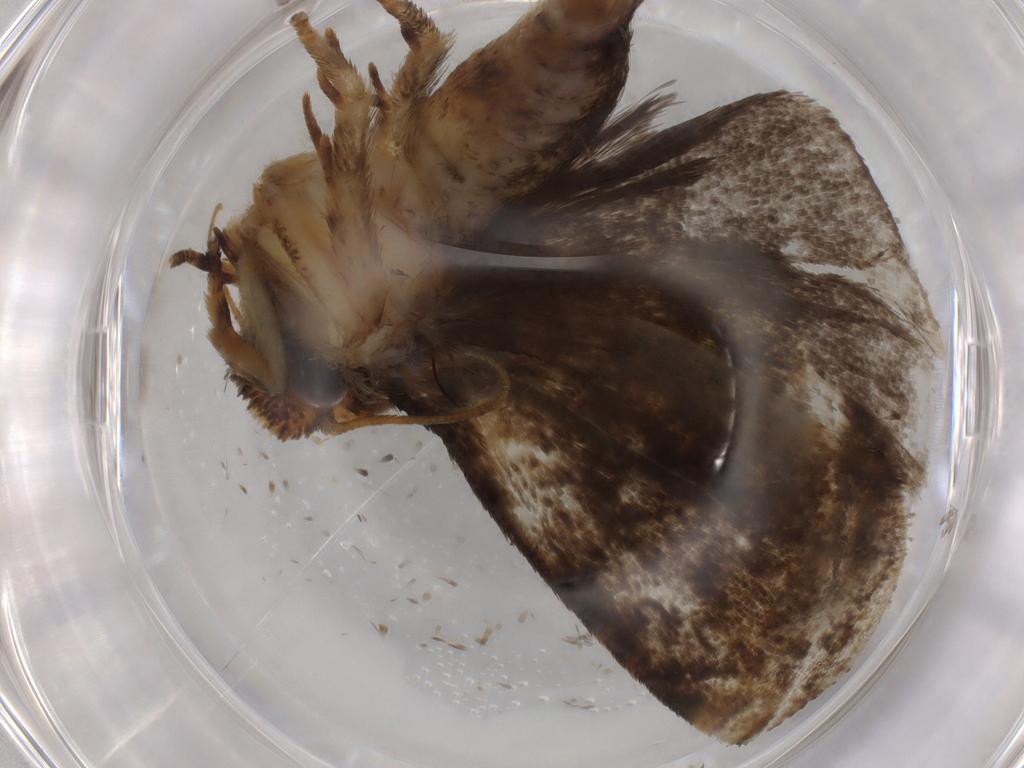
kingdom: Animalia
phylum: Arthropoda
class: Insecta
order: Lepidoptera
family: Tineidae
